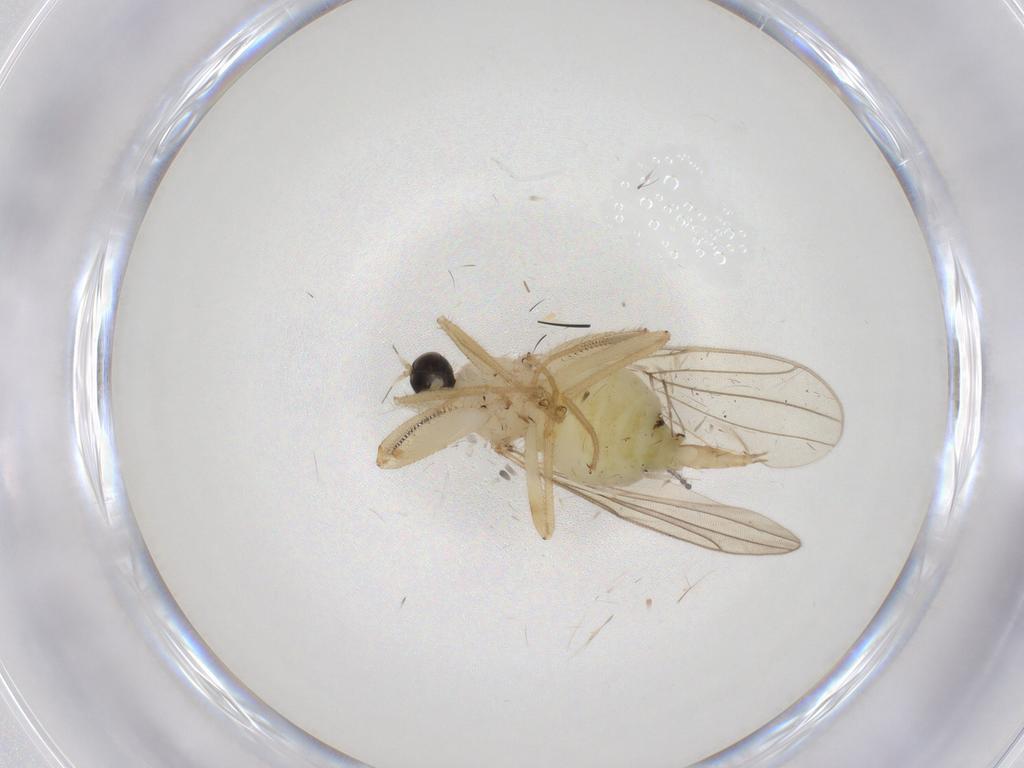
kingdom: Animalia
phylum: Arthropoda
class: Insecta
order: Diptera
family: Hybotidae
